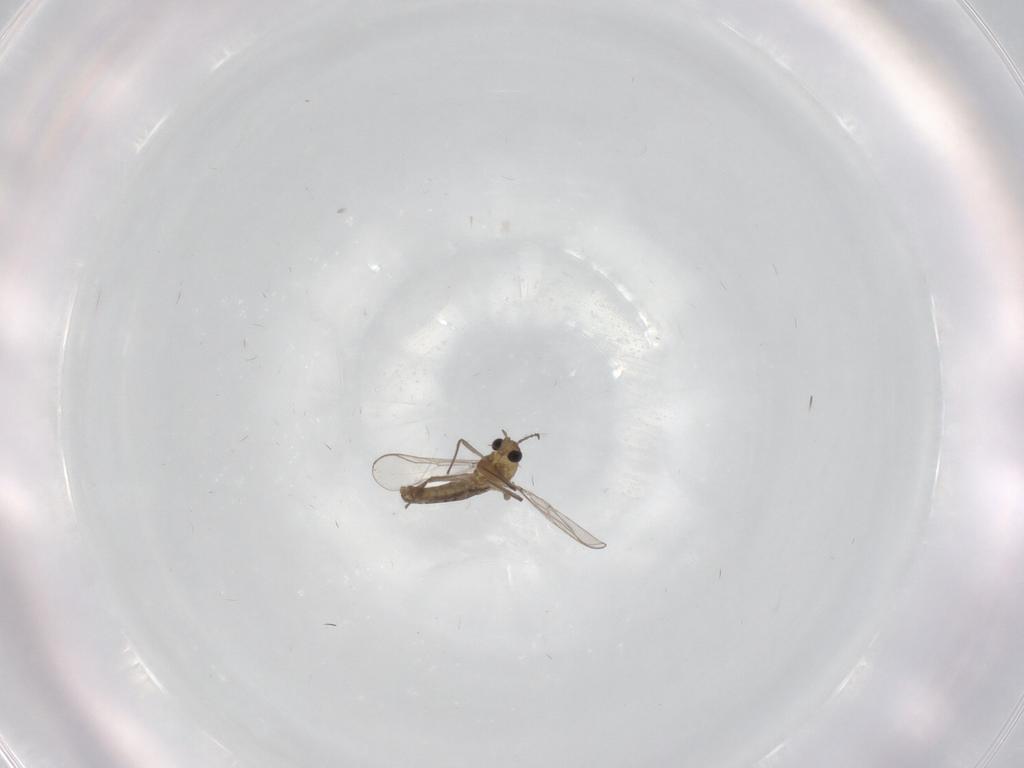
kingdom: Animalia
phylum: Arthropoda
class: Insecta
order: Diptera
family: Chironomidae
